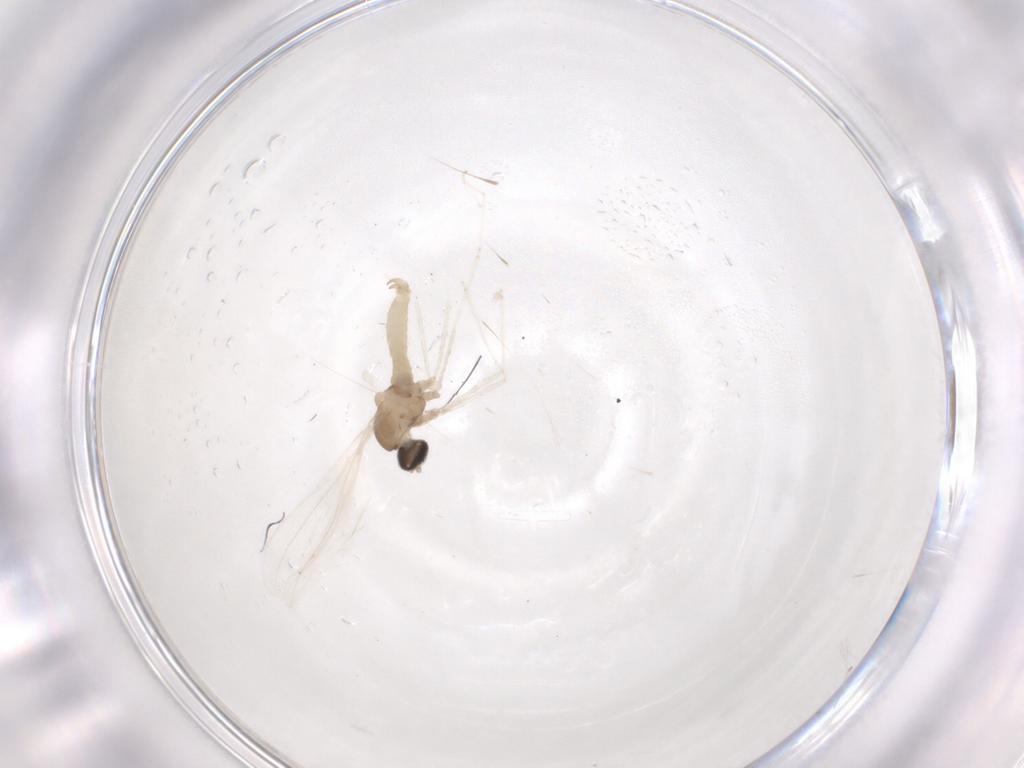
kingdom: Animalia
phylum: Arthropoda
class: Insecta
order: Diptera
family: Cecidomyiidae
